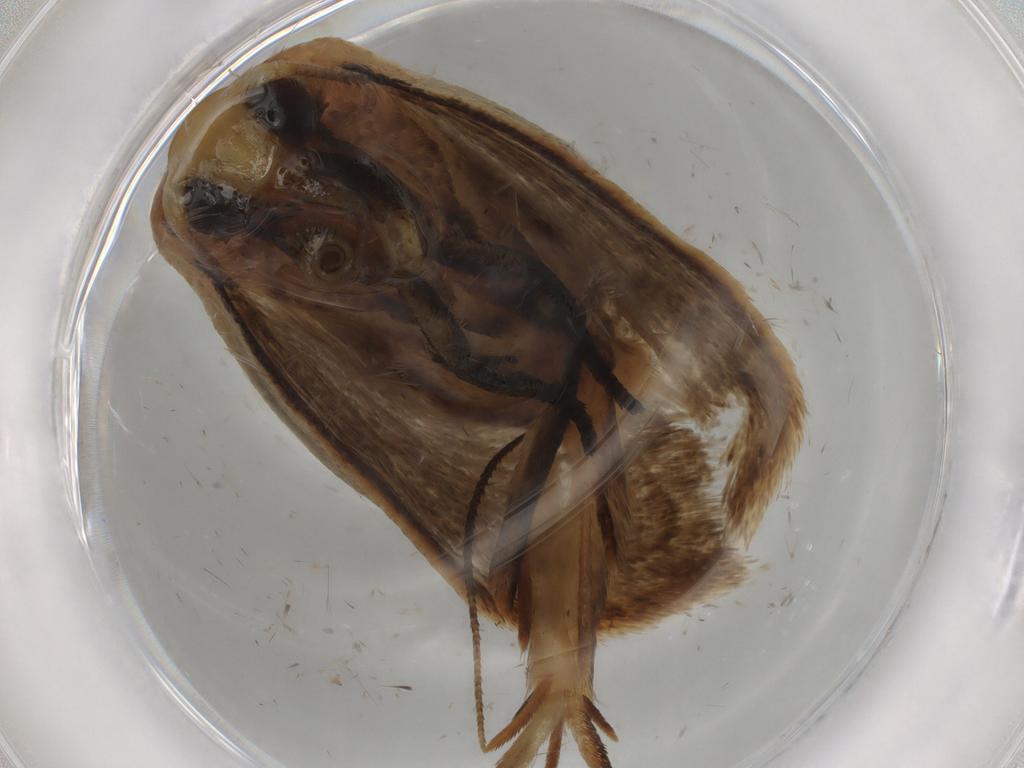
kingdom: Animalia
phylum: Arthropoda
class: Insecta
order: Lepidoptera
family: Oecophoridae
